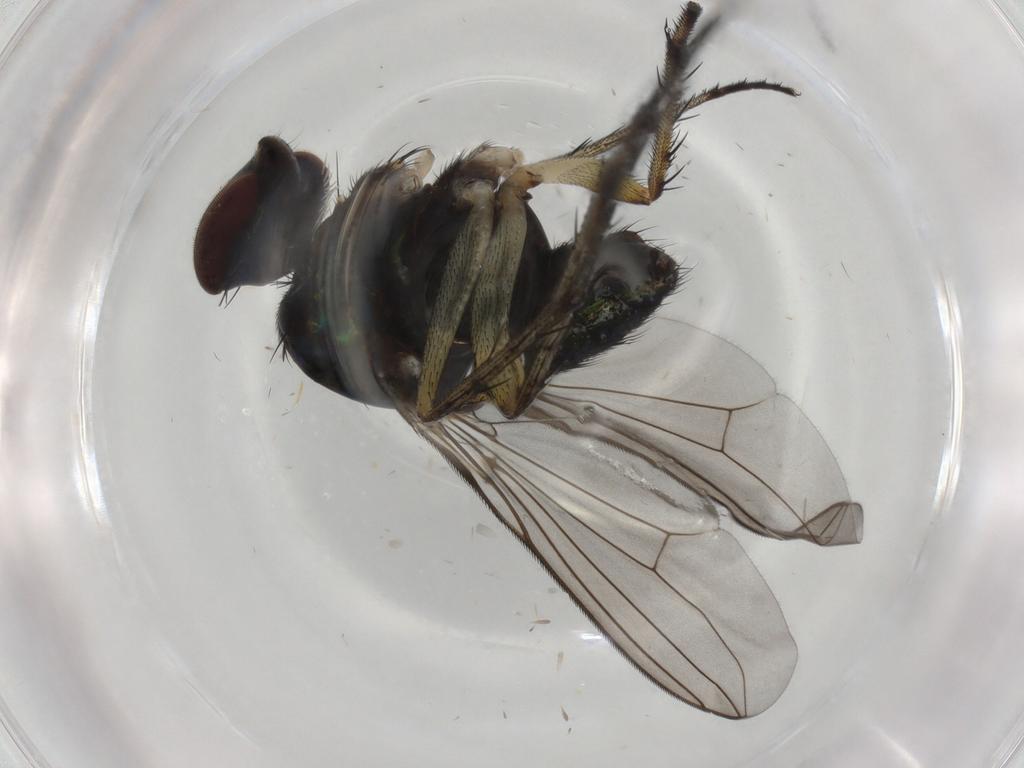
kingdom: Animalia
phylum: Arthropoda
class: Insecta
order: Diptera
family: Dolichopodidae
